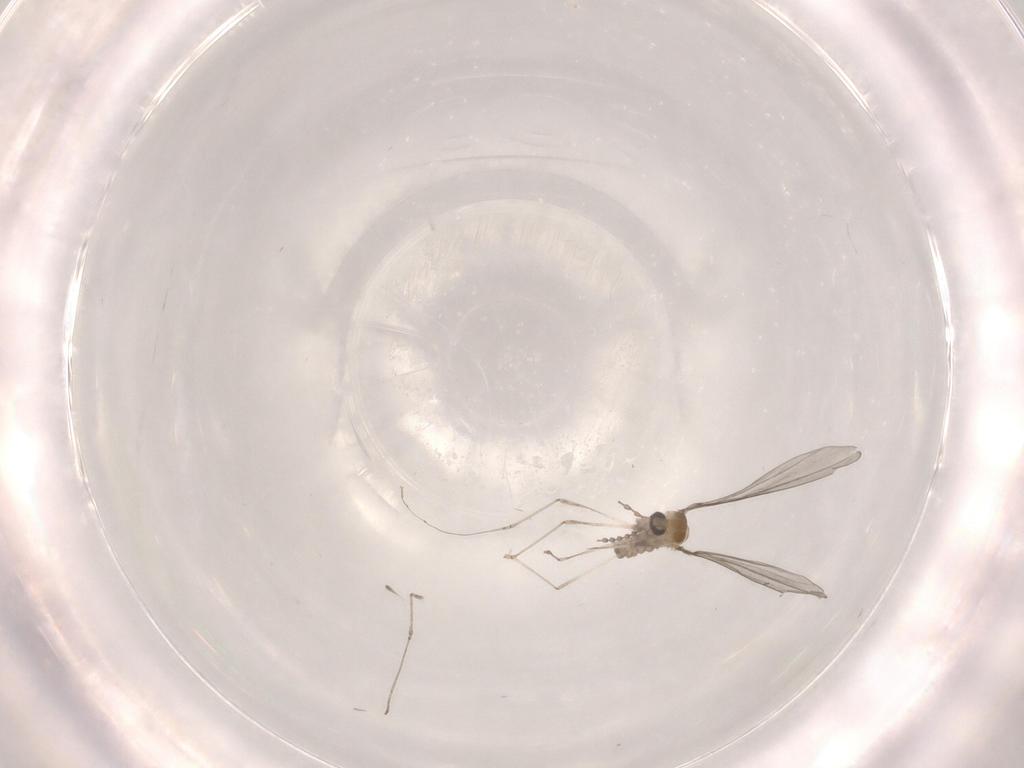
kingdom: Animalia
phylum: Arthropoda
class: Insecta
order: Diptera
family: Cecidomyiidae
